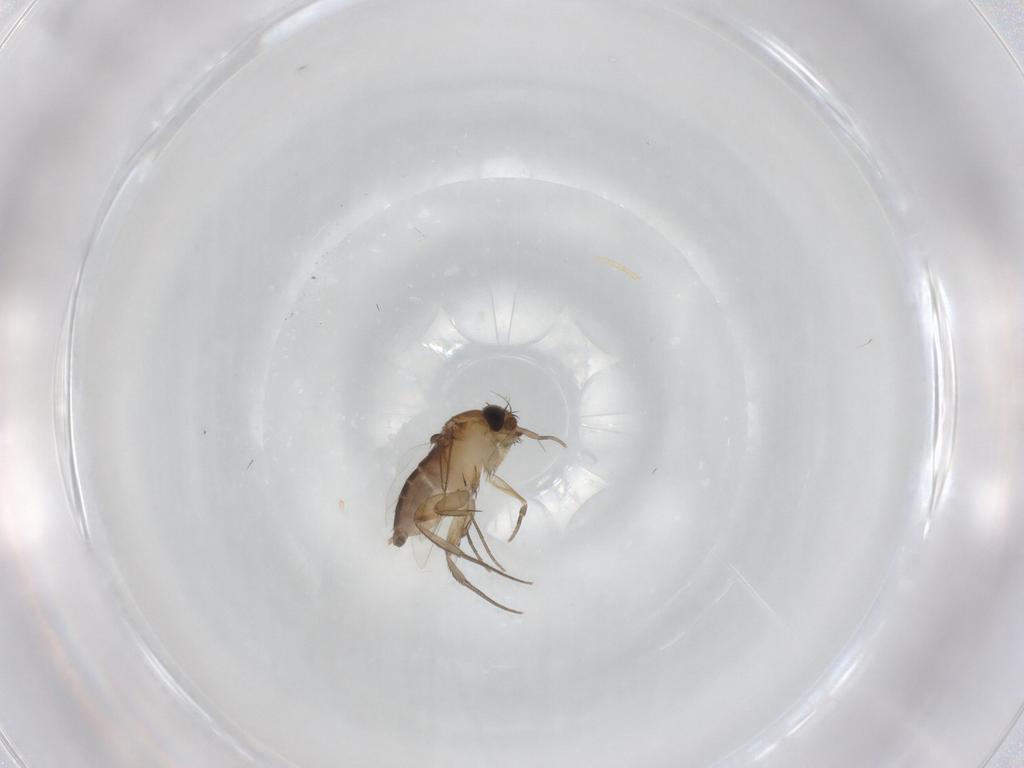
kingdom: Animalia
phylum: Arthropoda
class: Insecta
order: Diptera
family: Phoridae
